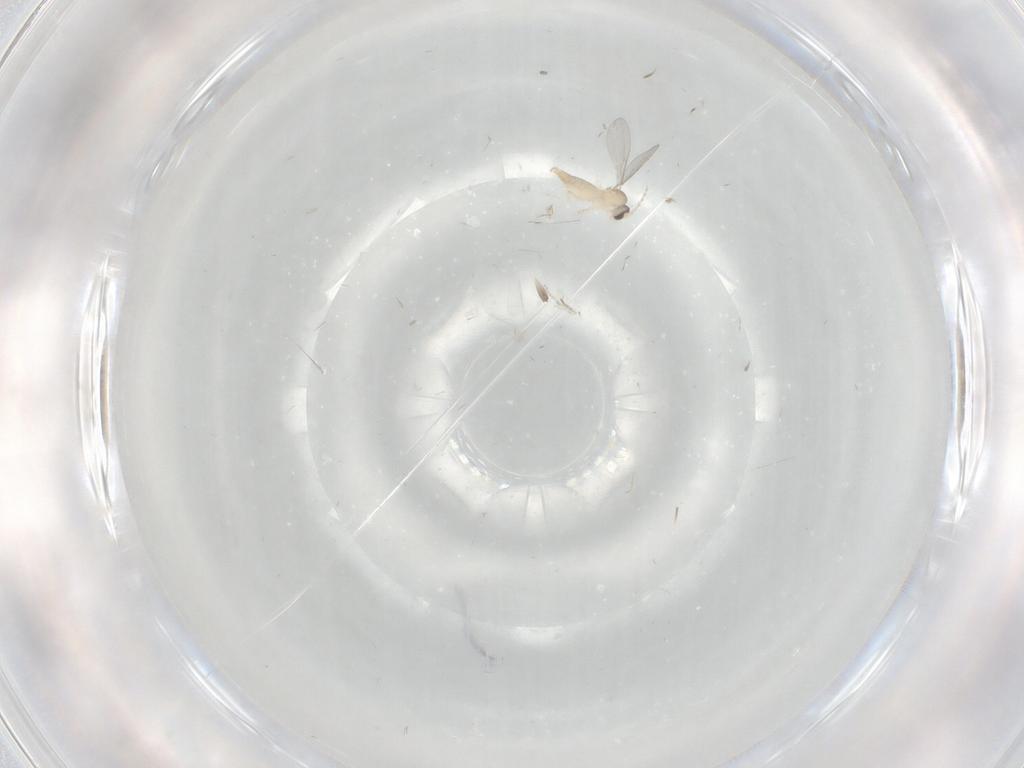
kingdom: Animalia
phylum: Arthropoda
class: Insecta
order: Diptera
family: Cecidomyiidae
